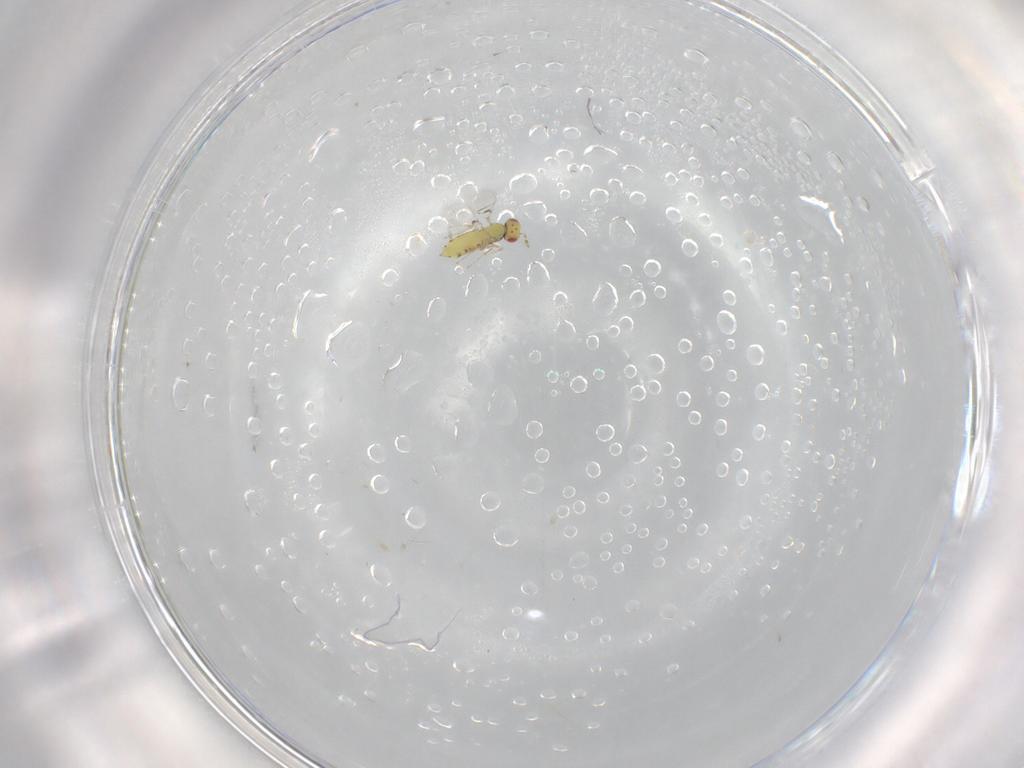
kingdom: Animalia
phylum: Arthropoda
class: Insecta
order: Hymenoptera
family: Trichogrammatidae
